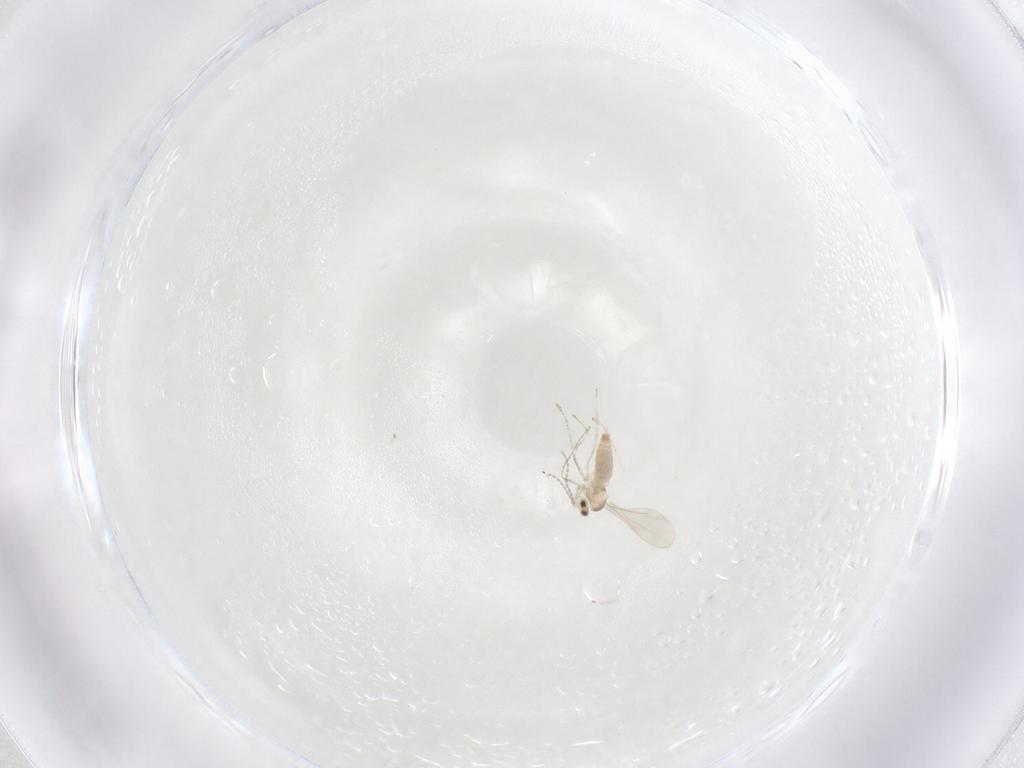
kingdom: Animalia
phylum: Arthropoda
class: Insecta
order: Diptera
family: Cecidomyiidae
